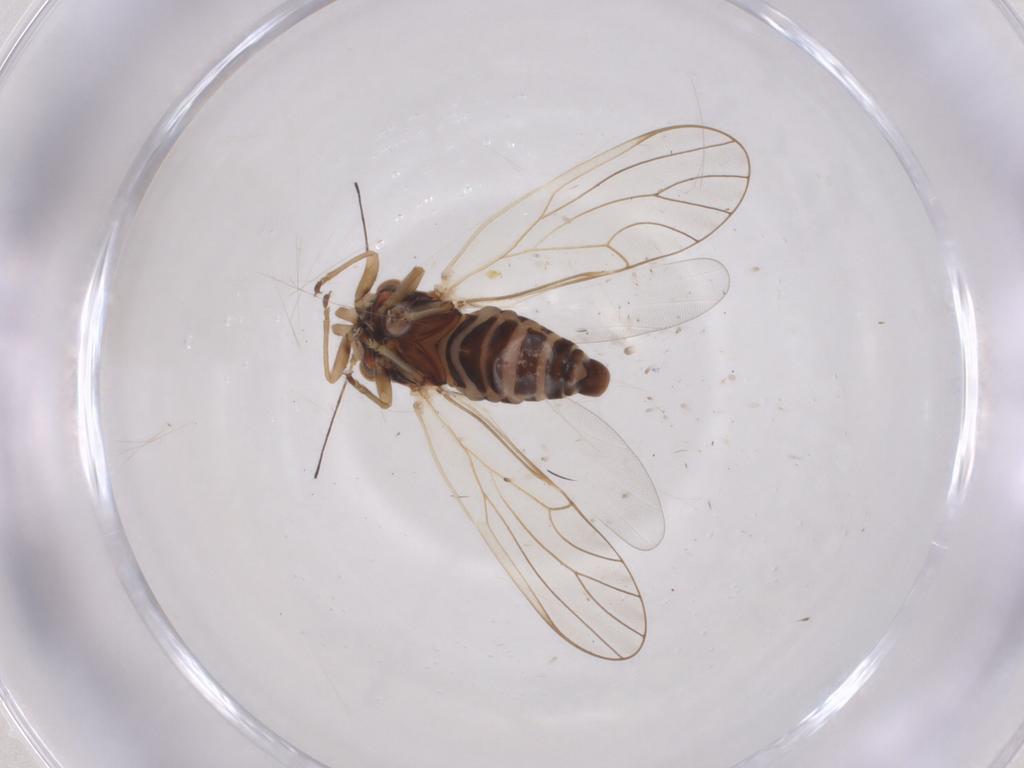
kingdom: Animalia
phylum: Arthropoda
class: Insecta
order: Hemiptera
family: Psyllidae
